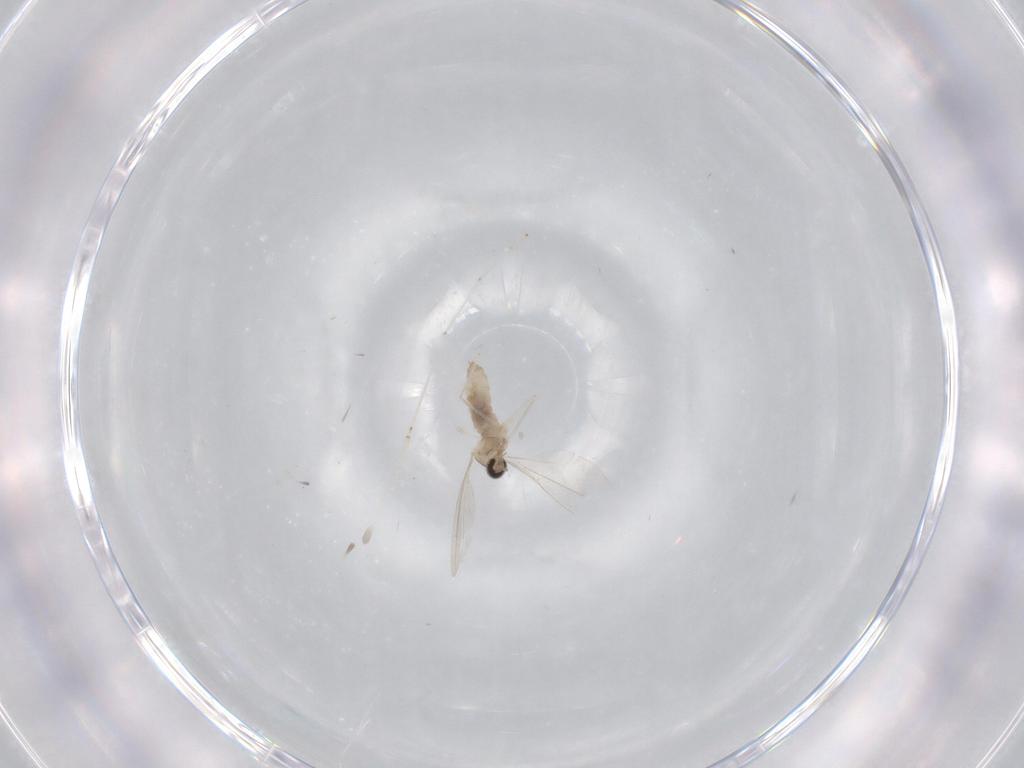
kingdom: Animalia
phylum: Arthropoda
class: Insecta
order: Diptera
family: Cecidomyiidae
